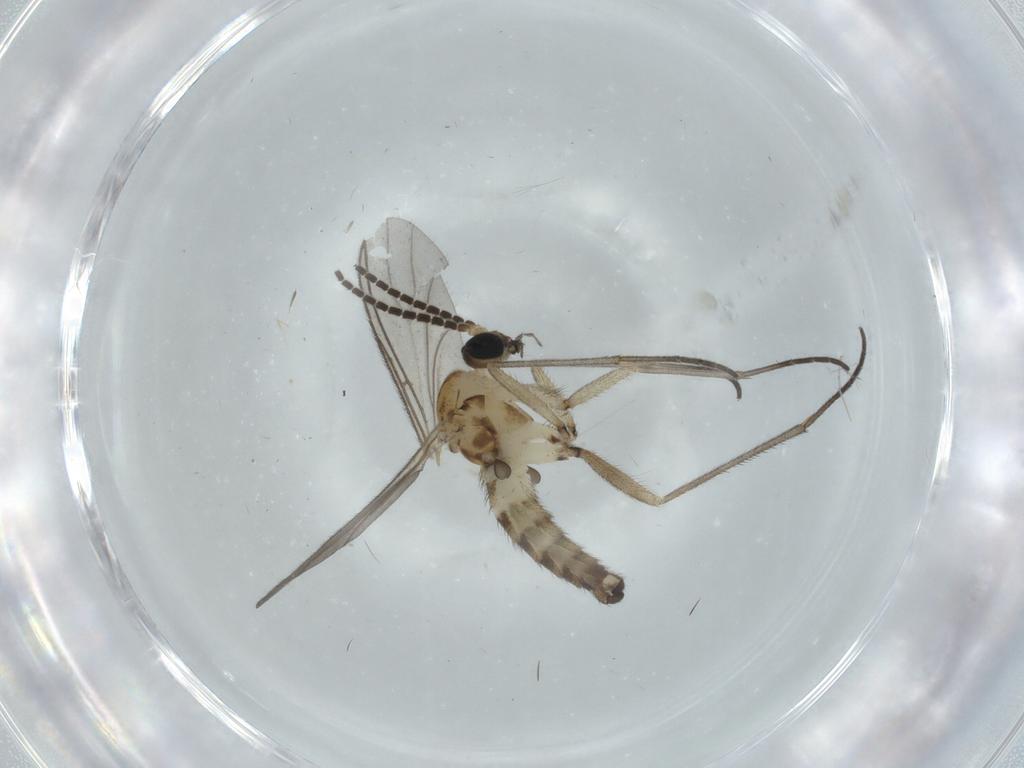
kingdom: Animalia
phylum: Arthropoda
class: Insecta
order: Diptera
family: Sciaridae
